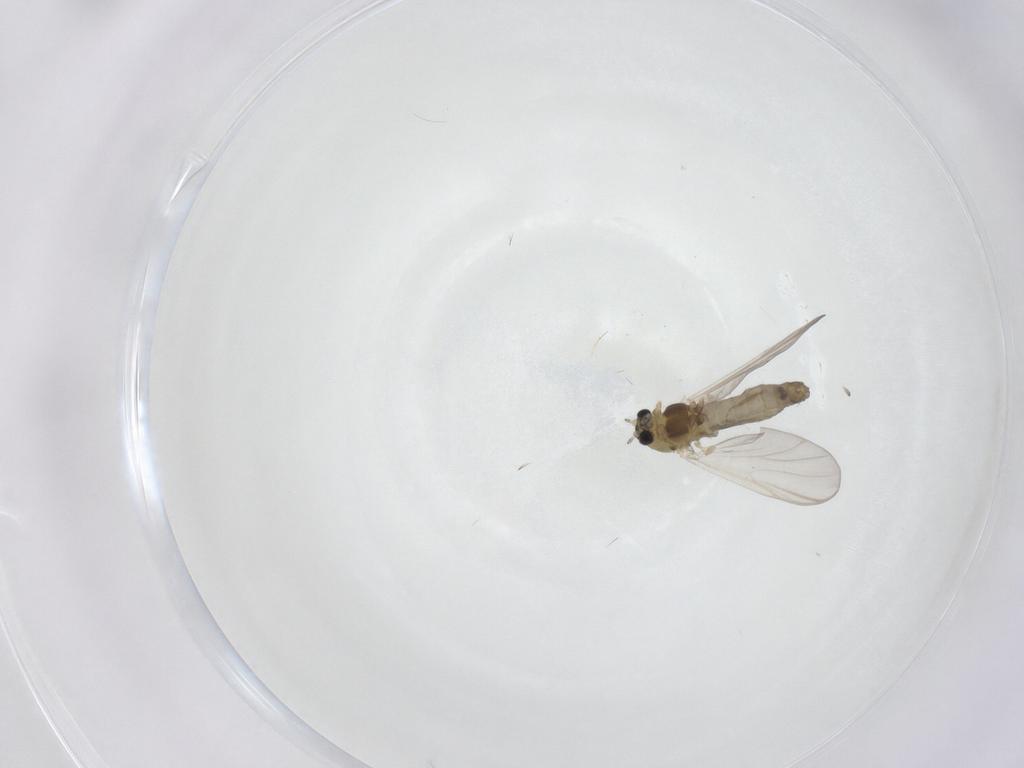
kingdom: Animalia
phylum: Arthropoda
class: Insecta
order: Diptera
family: Chironomidae
